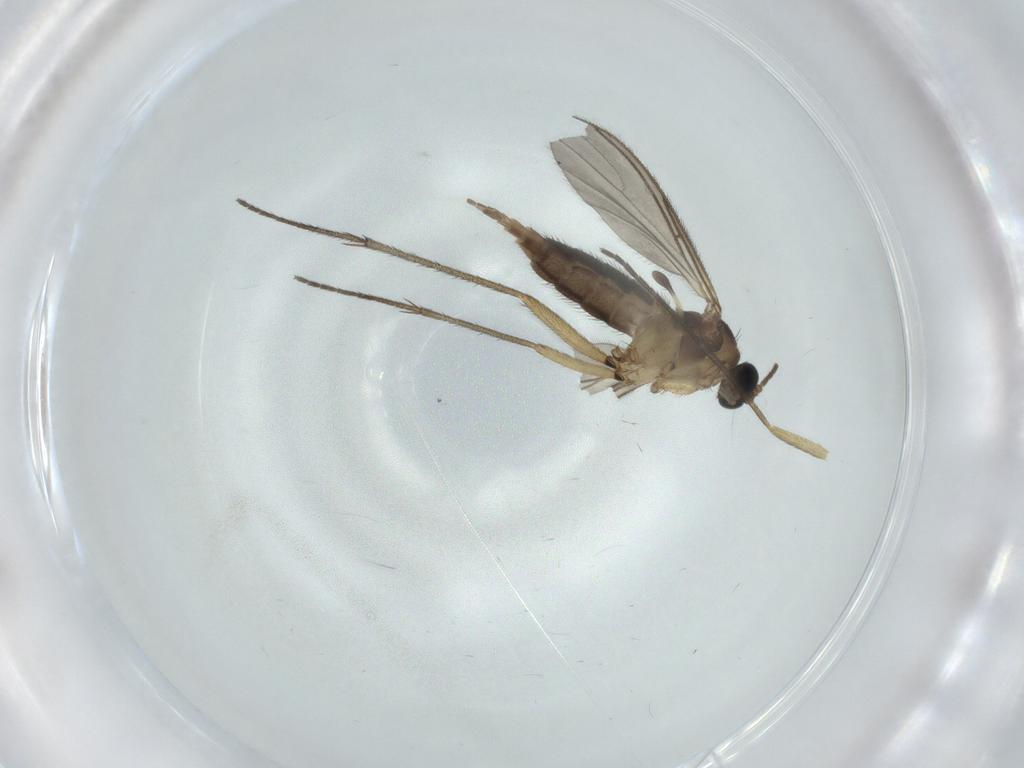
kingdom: Animalia
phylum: Arthropoda
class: Insecta
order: Diptera
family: Sciaridae
